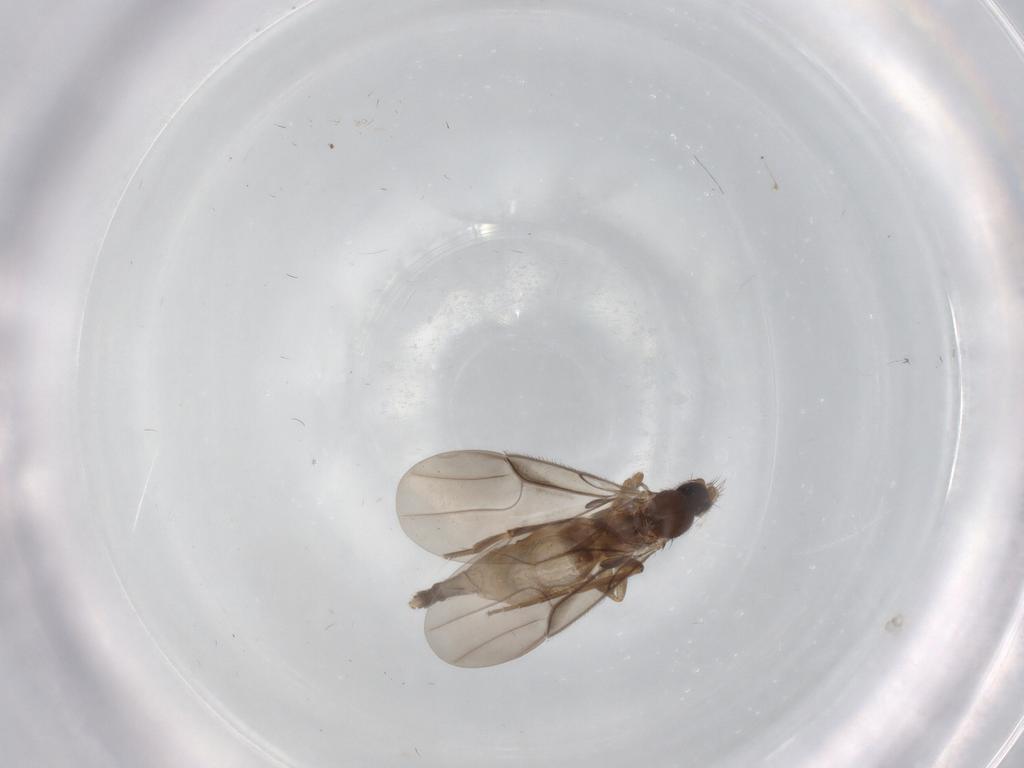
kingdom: Animalia
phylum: Arthropoda
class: Insecta
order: Diptera
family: Phoridae
